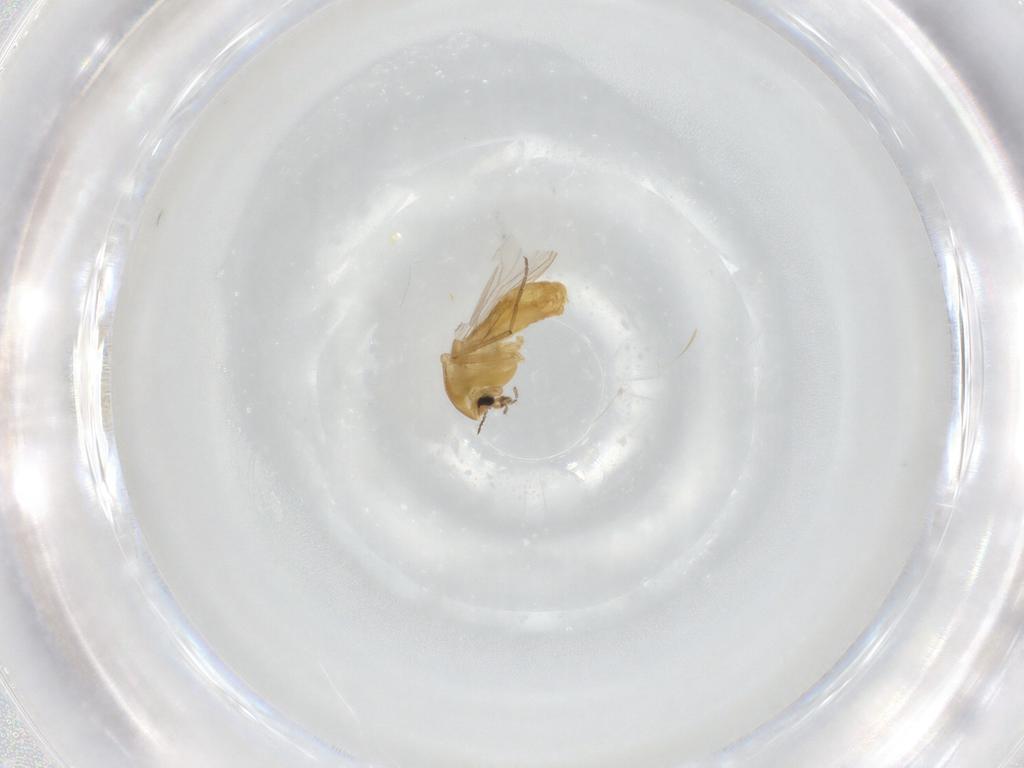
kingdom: Animalia
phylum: Arthropoda
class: Insecta
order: Diptera
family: Chironomidae
